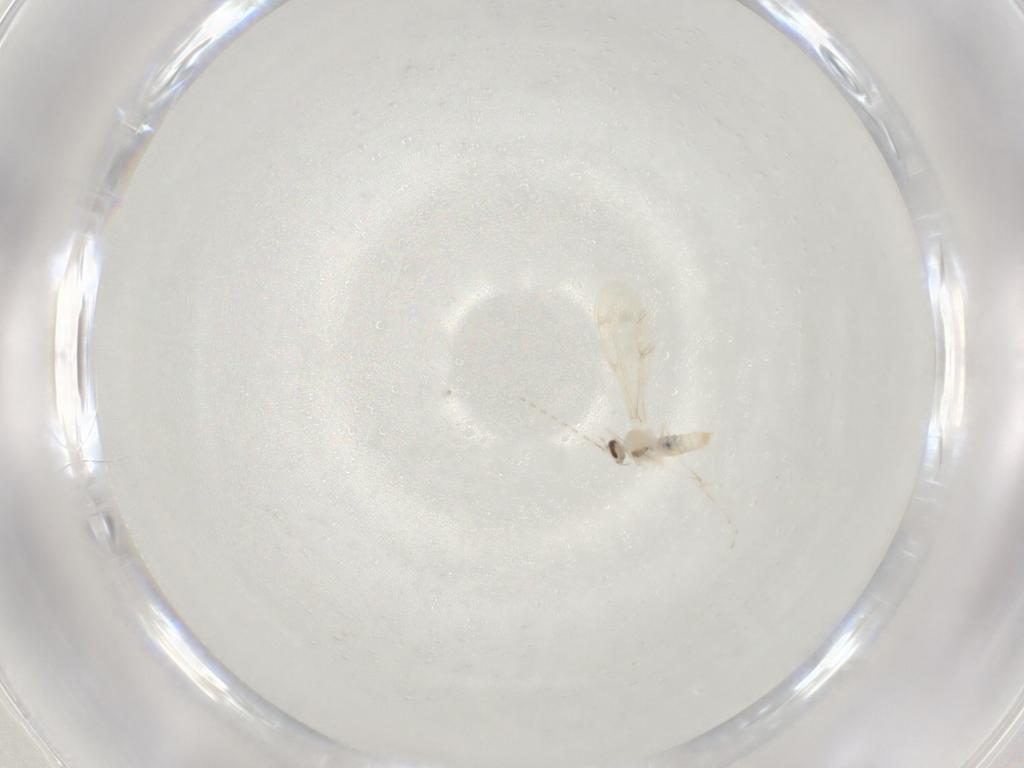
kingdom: Animalia
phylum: Arthropoda
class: Insecta
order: Diptera
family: Cecidomyiidae
